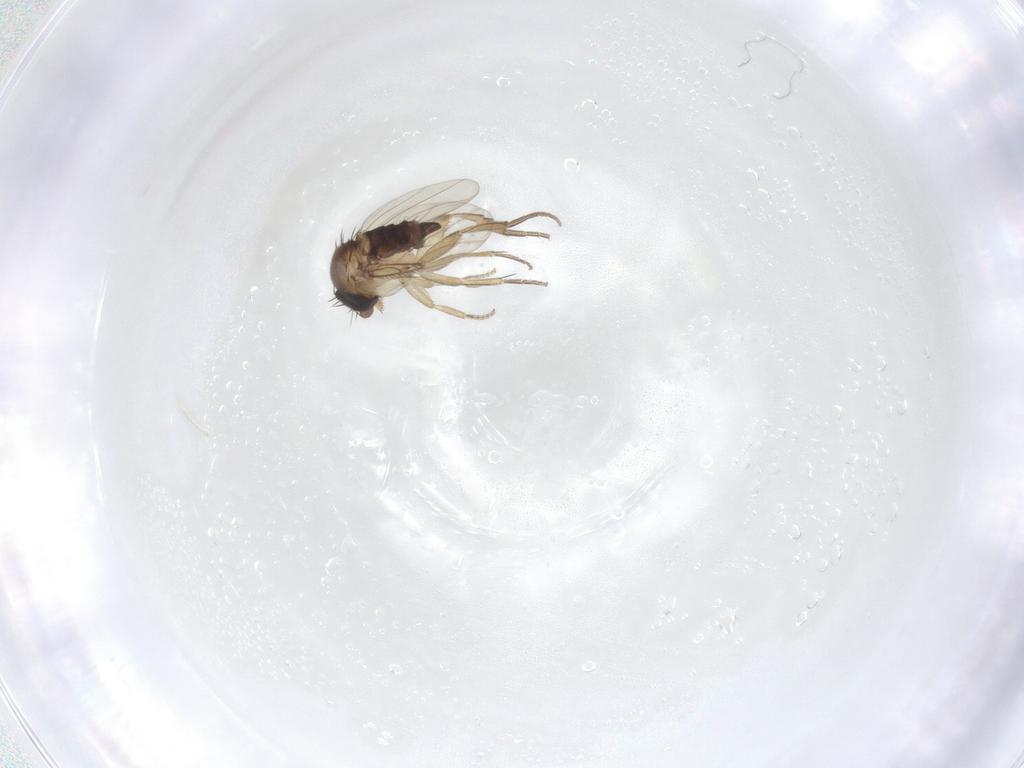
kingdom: Animalia
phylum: Arthropoda
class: Insecta
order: Diptera
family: Phoridae
